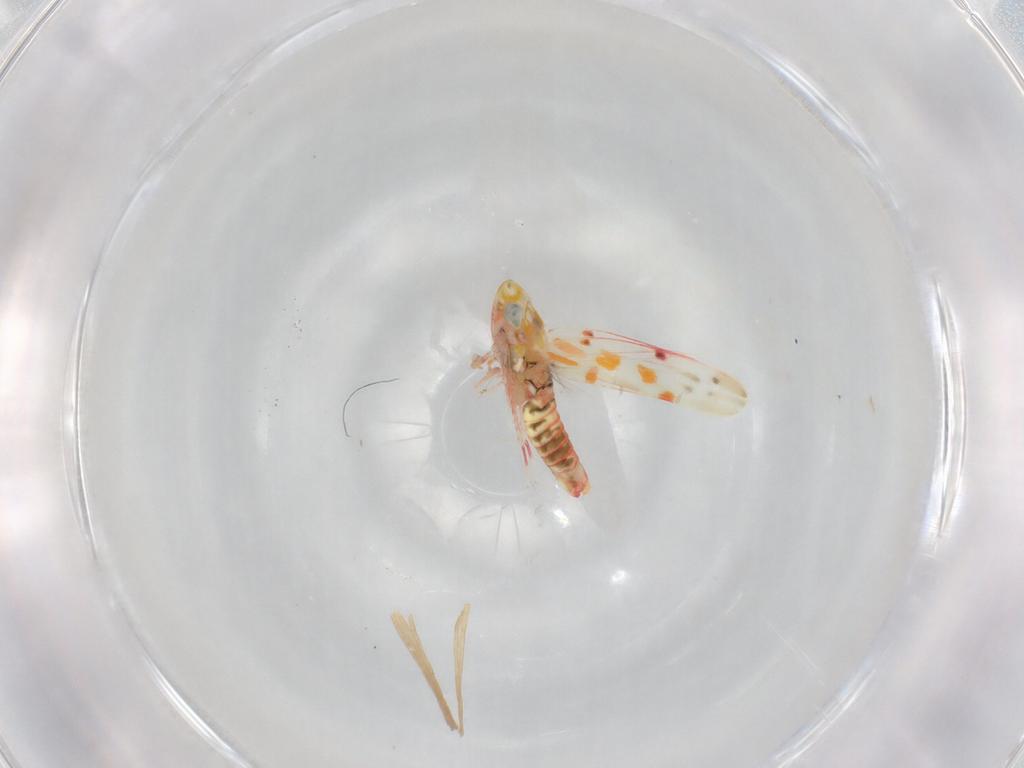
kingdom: Animalia
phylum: Arthropoda
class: Insecta
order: Hemiptera
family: Cicadellidae
